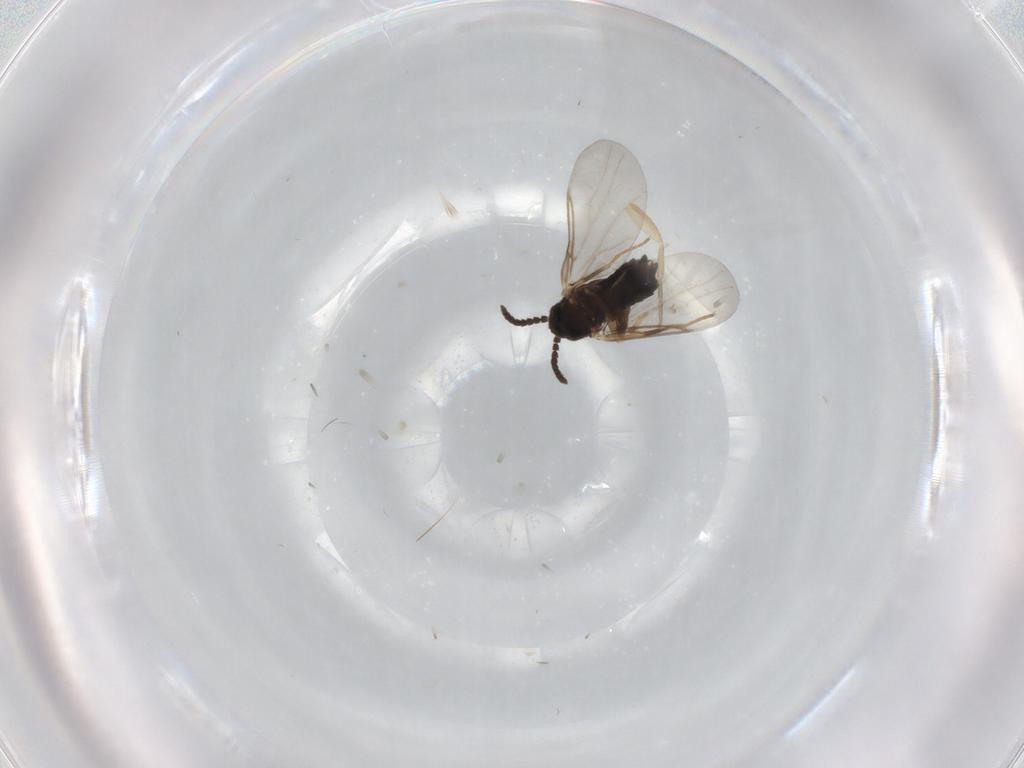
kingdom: Animalia
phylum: Arthropoda
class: Insecta
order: Diptera
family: Scatopsidae
